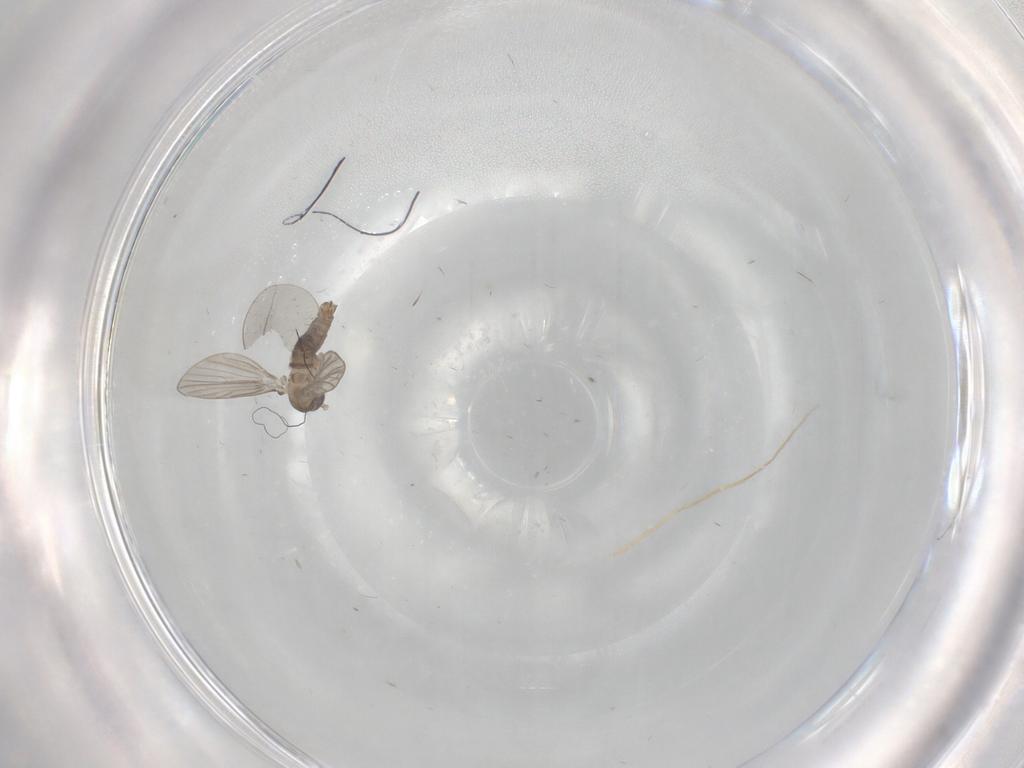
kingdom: Animalia
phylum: Arthropoda
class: Insecta
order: Diptera
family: Psychodidae
